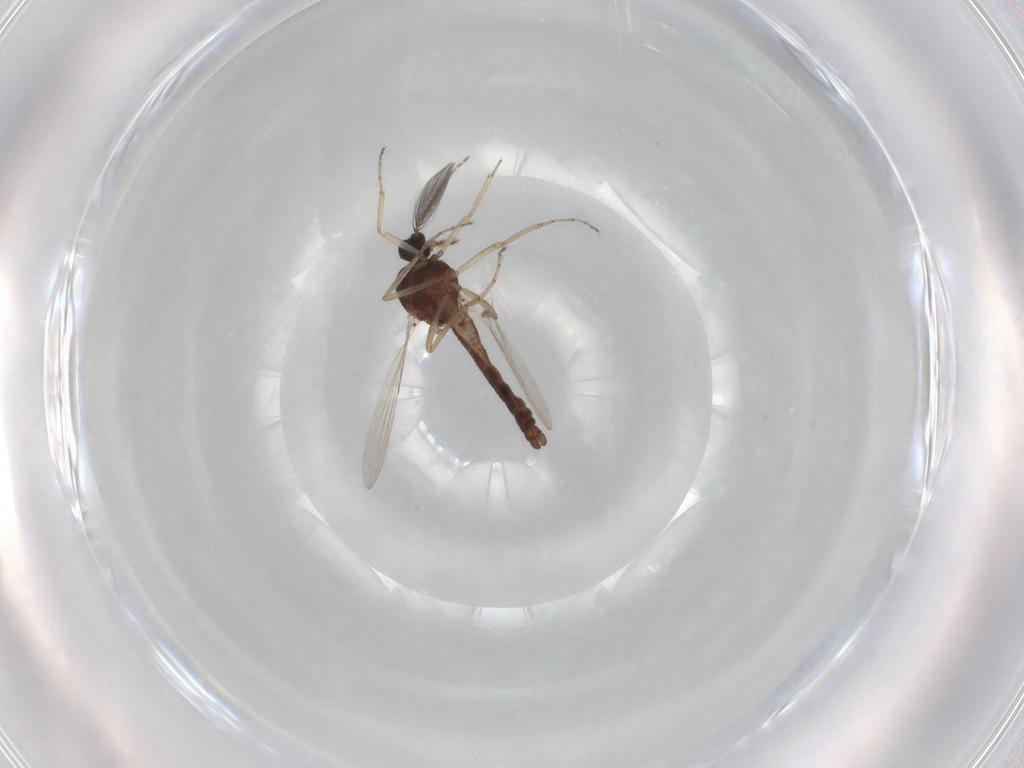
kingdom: Animalia
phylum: Arthropoda
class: Insecta
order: Diptera
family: Ceratopogonidae
